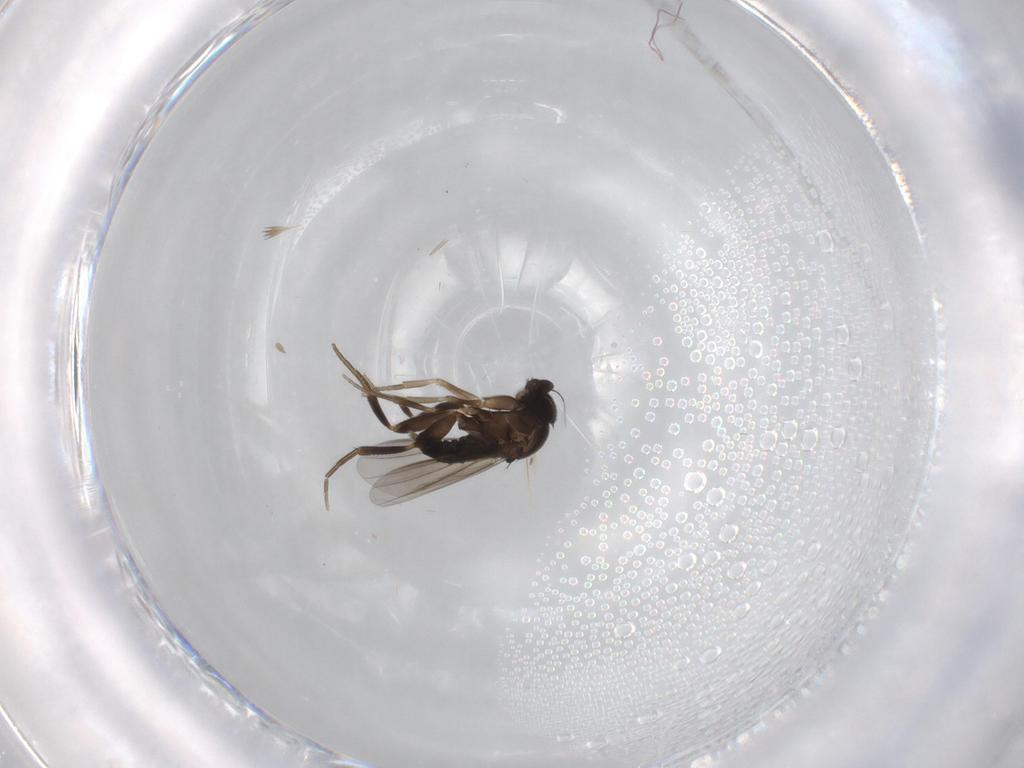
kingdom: Animalia
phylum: Arthropoda
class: Insecta
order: Diptera
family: Phoridae
